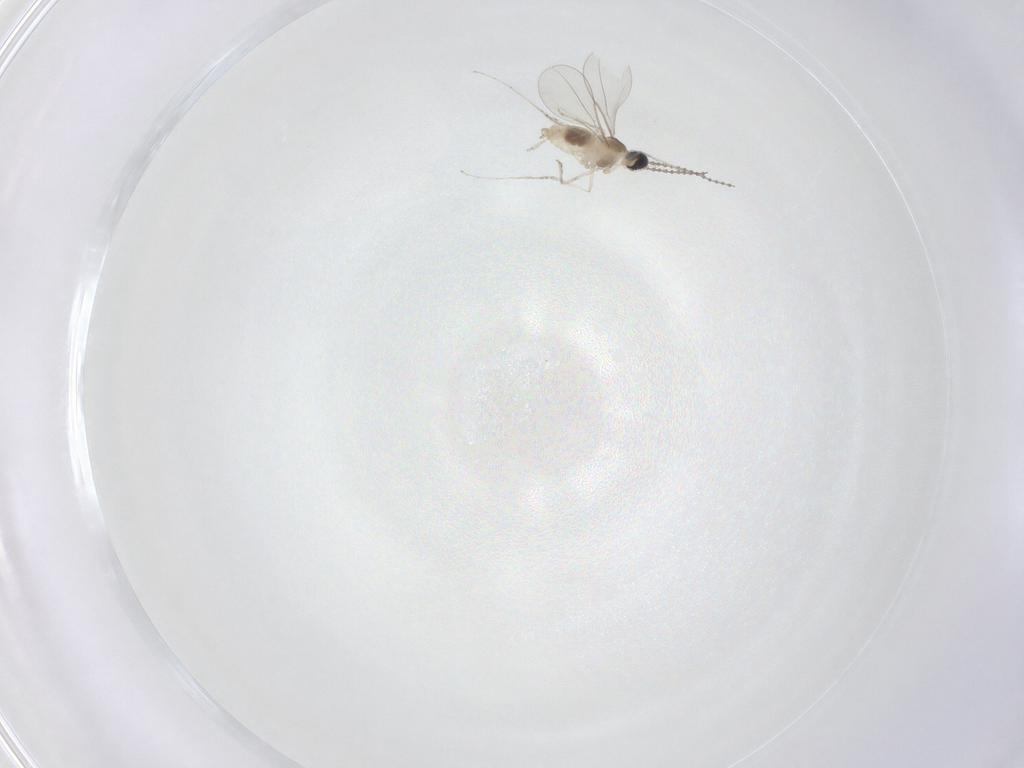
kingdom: Animalia
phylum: Arthropoda
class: Insecta
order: Diptera
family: Cecidomyiidae
